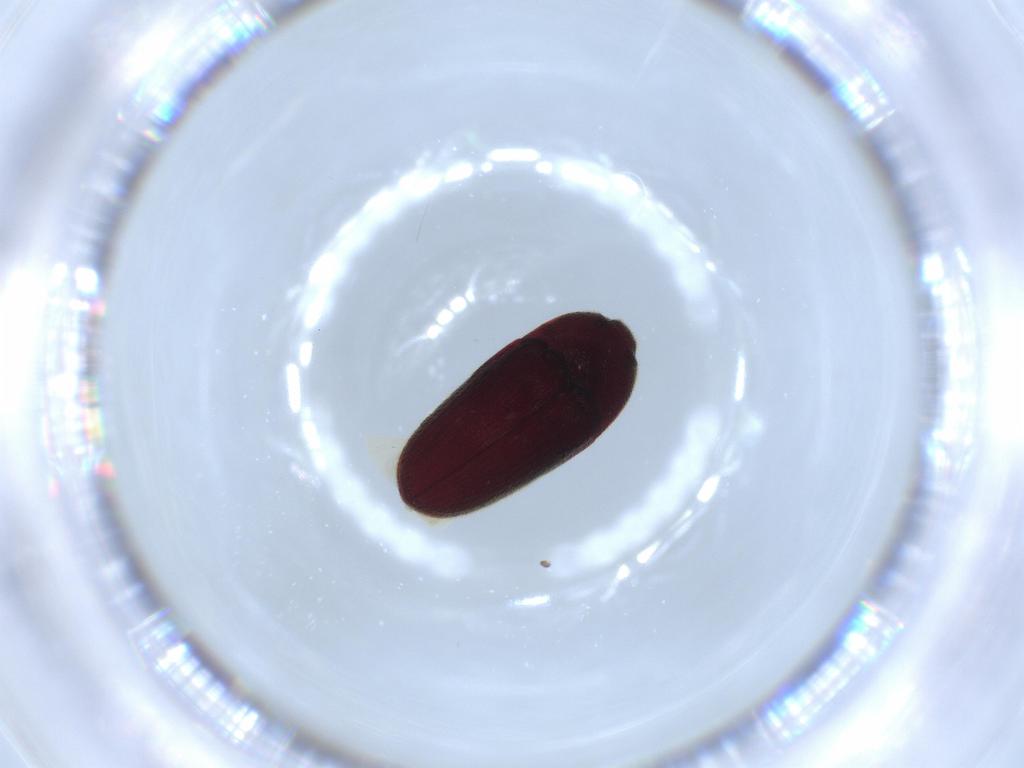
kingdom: Animalia
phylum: Arthropoda
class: Insecta
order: Coleoptera
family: Throscidae
